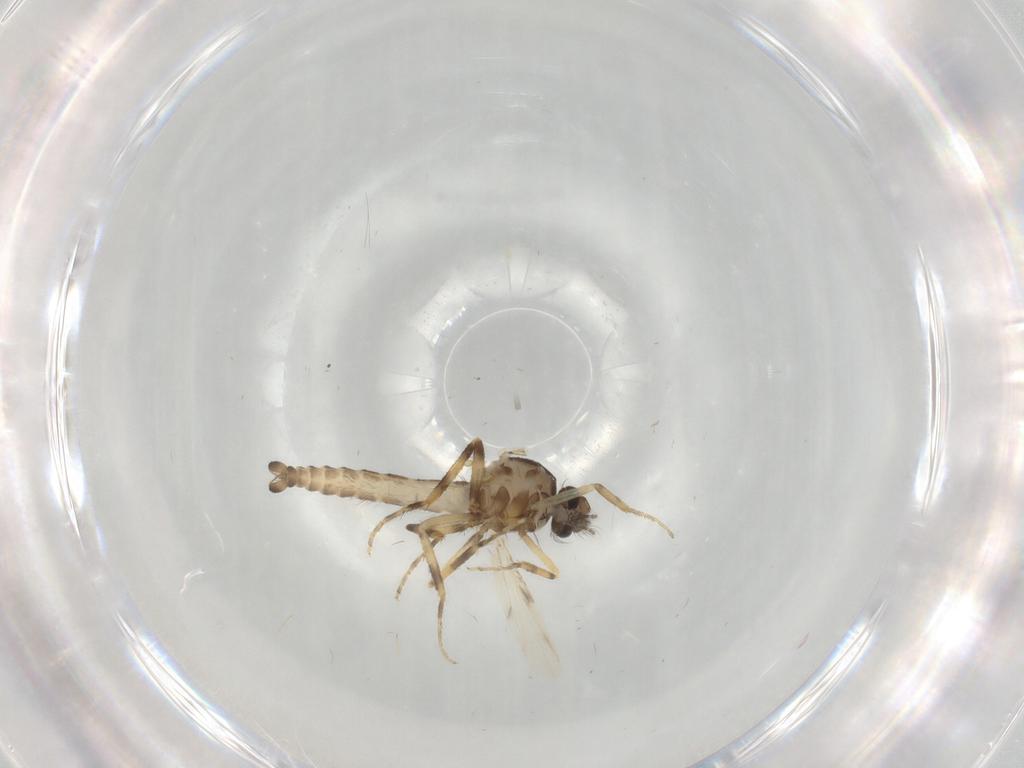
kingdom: Animalia
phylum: Arthropoda
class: Insecta
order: Diptera
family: Ceratopogonidae
